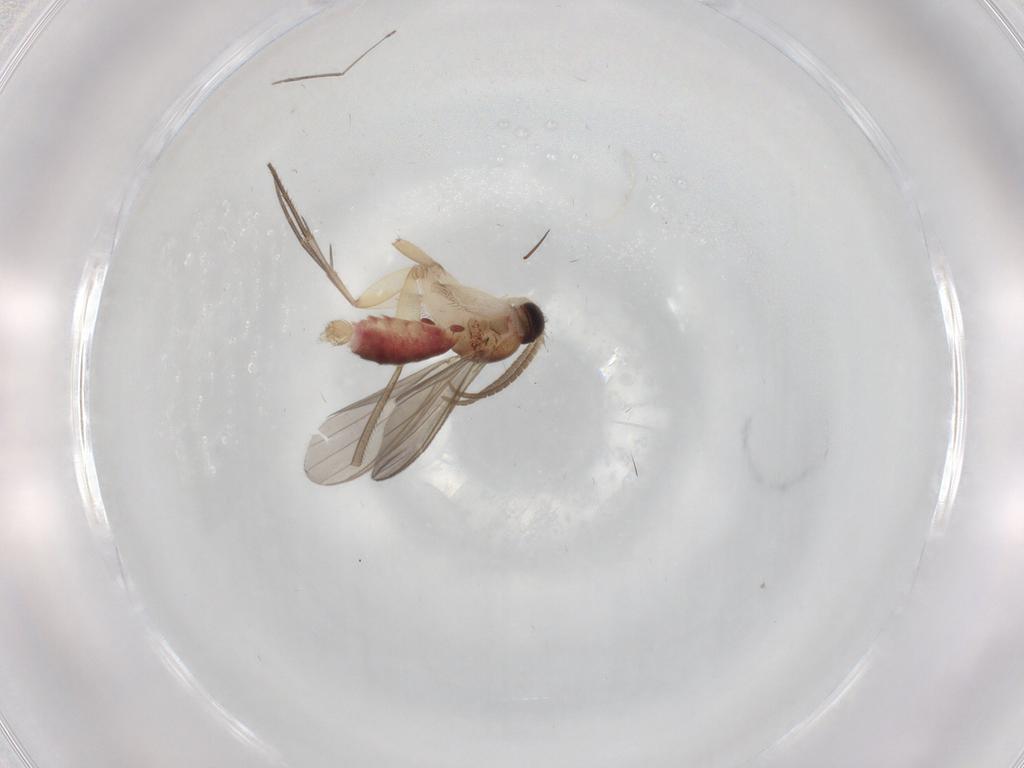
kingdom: Animalia
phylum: Arthropoda
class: Insecta
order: Diptera
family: Mycetophilidae
